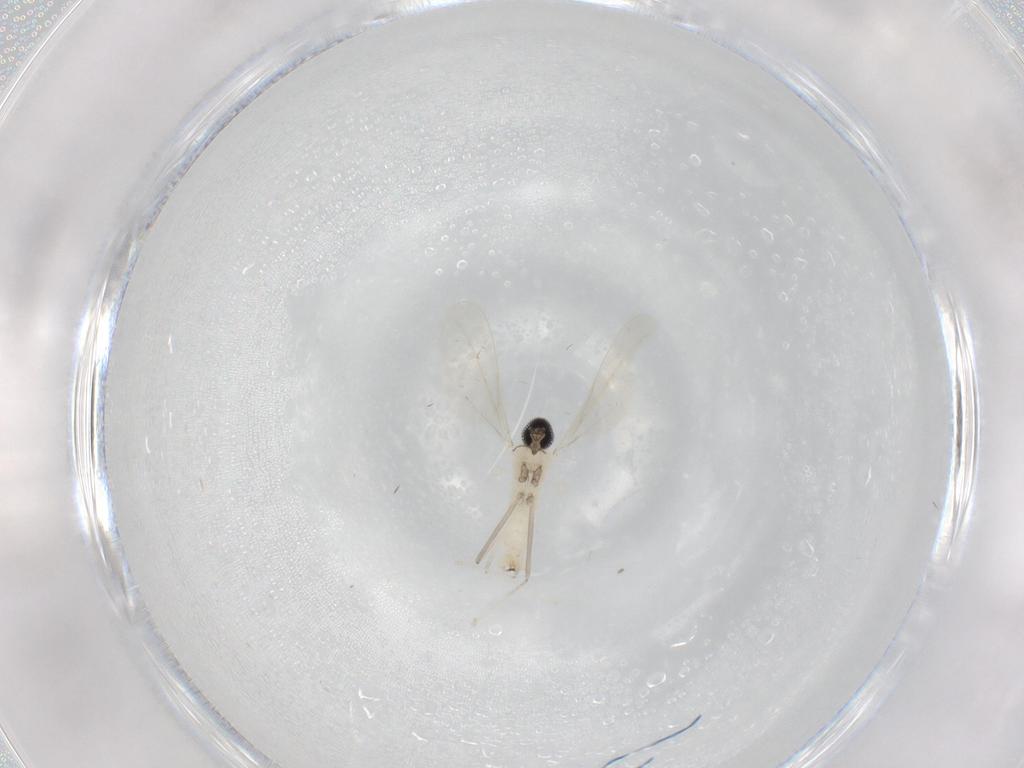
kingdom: Animalia
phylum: Arthropoda
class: Insecta
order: Diptera
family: Cecidomyiidae
